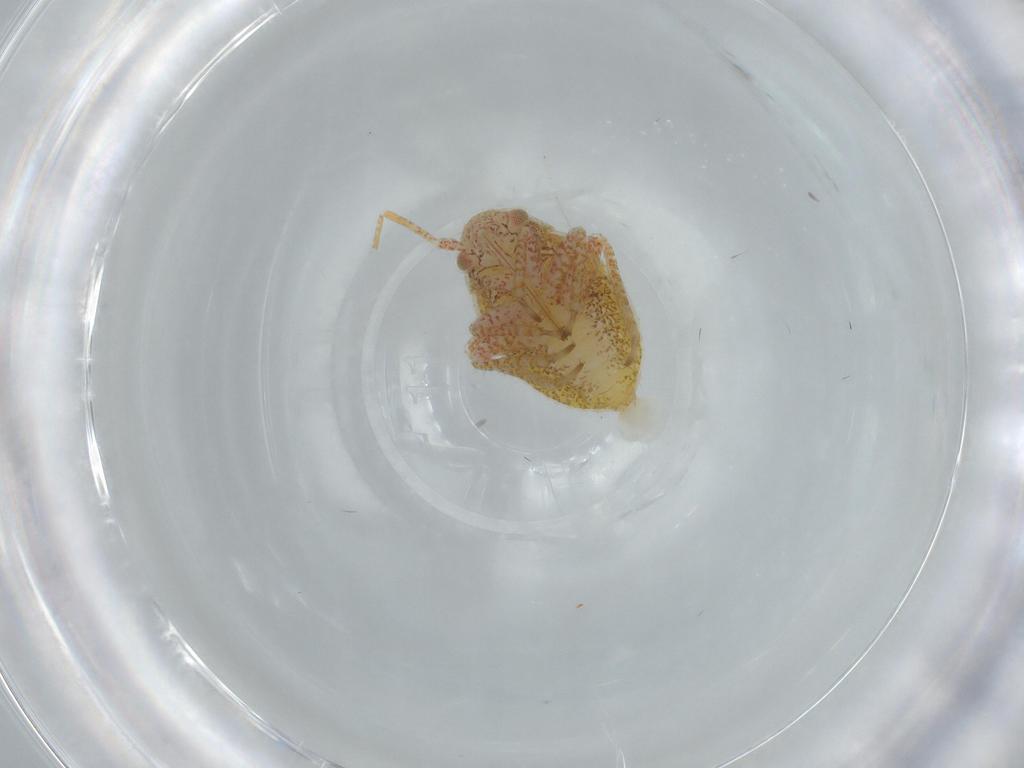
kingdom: Animalia
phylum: Arthropoda
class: Insecta
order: Hemiptera
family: Miridae
